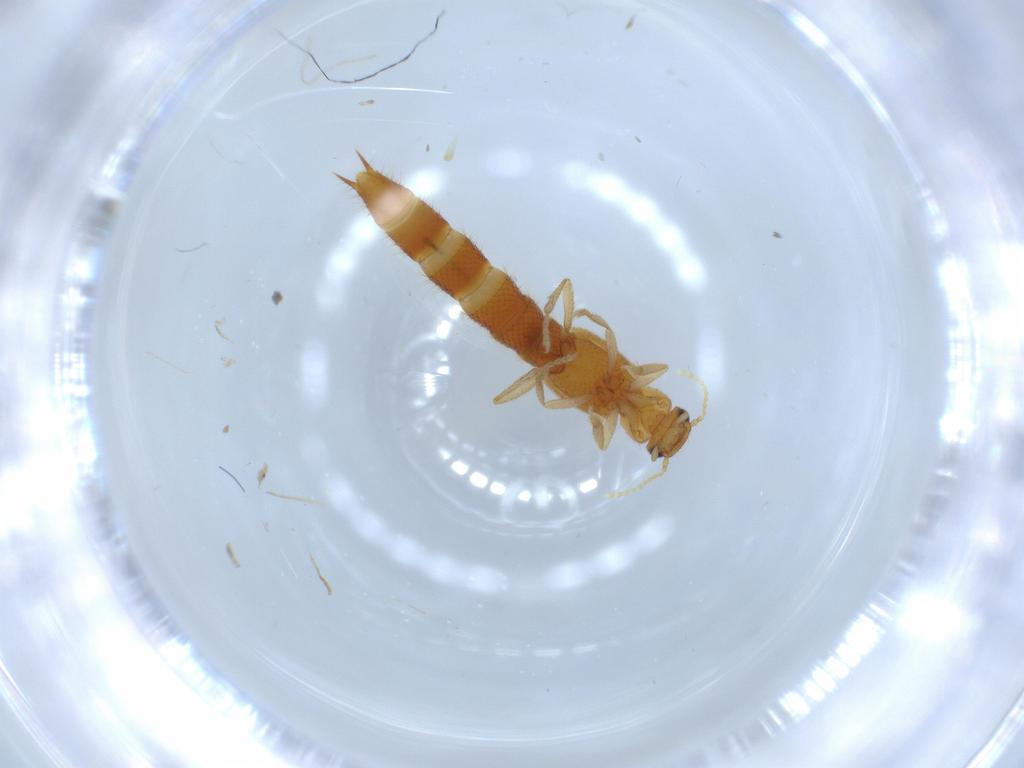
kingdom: Animalia
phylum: Arthropoda
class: Insecta
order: Coleoptera
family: Staphylinidae
